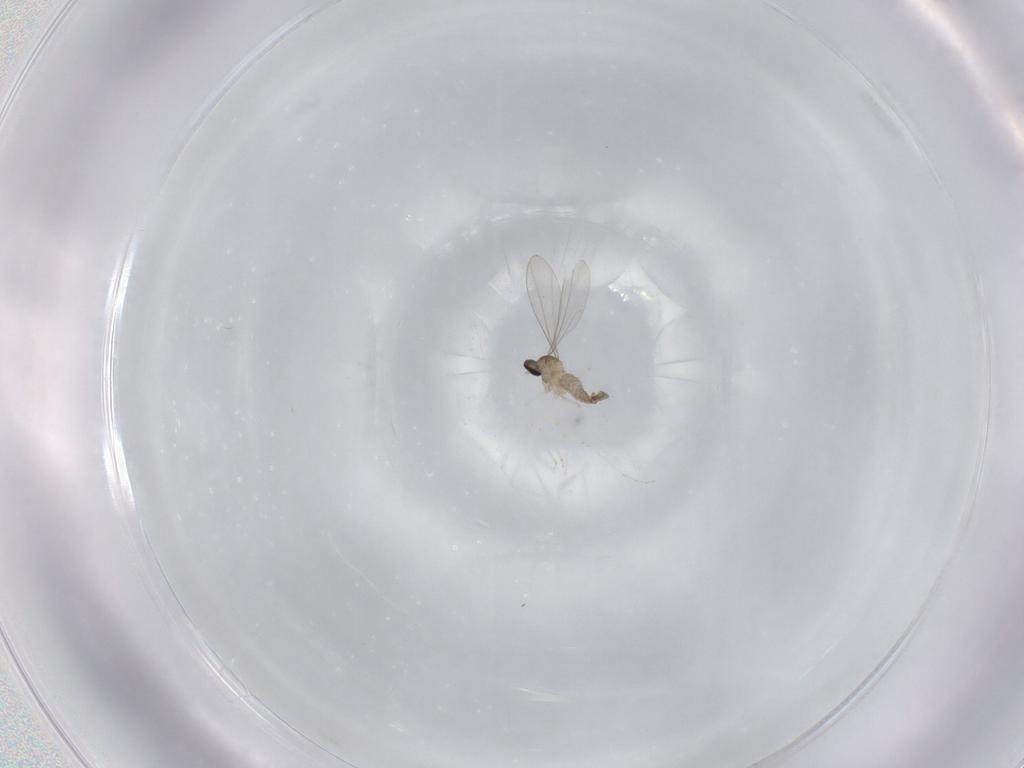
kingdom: Animalia
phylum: Arthropoda
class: Insecta
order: Diptera
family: Cecidomyiidae
